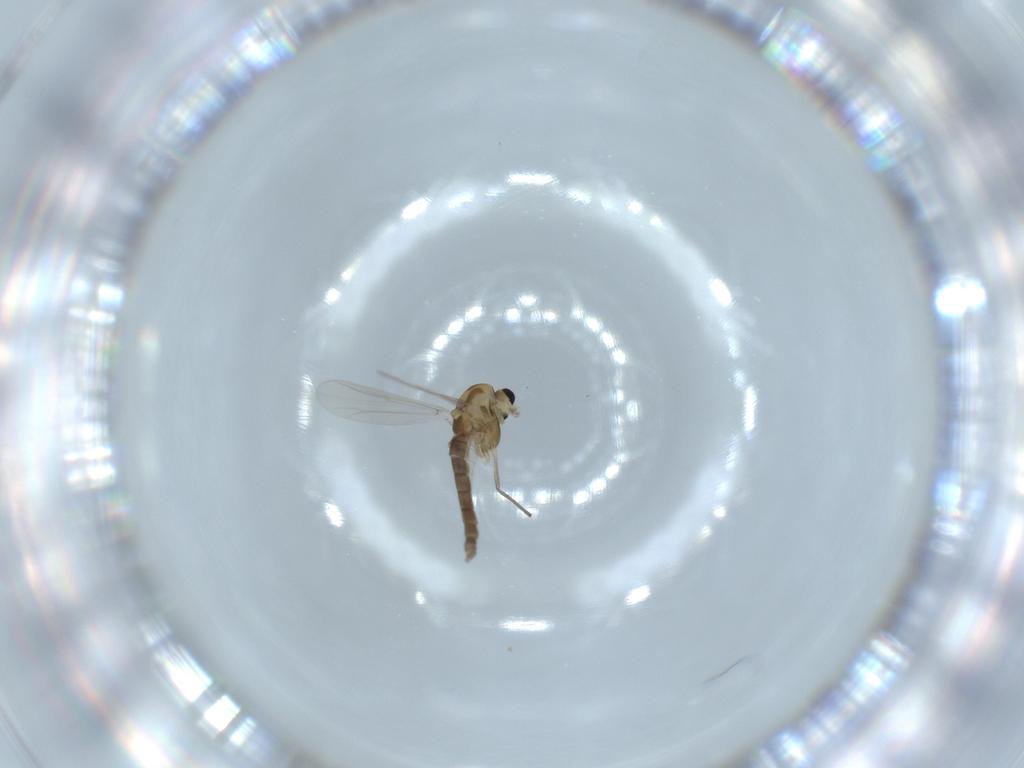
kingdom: Animalia
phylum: Arthropoda
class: Insecta
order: Diptera
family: Chironomidae
